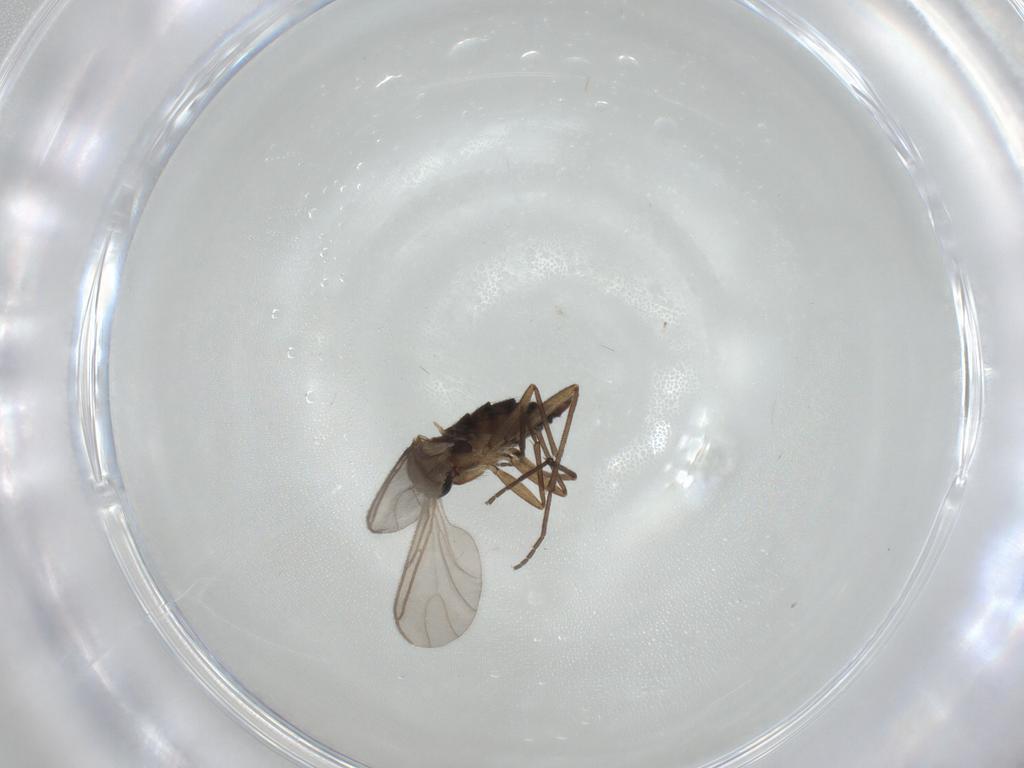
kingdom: Animalia
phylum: Arthropoda
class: Insecta
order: Diptera
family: Sciaridae
